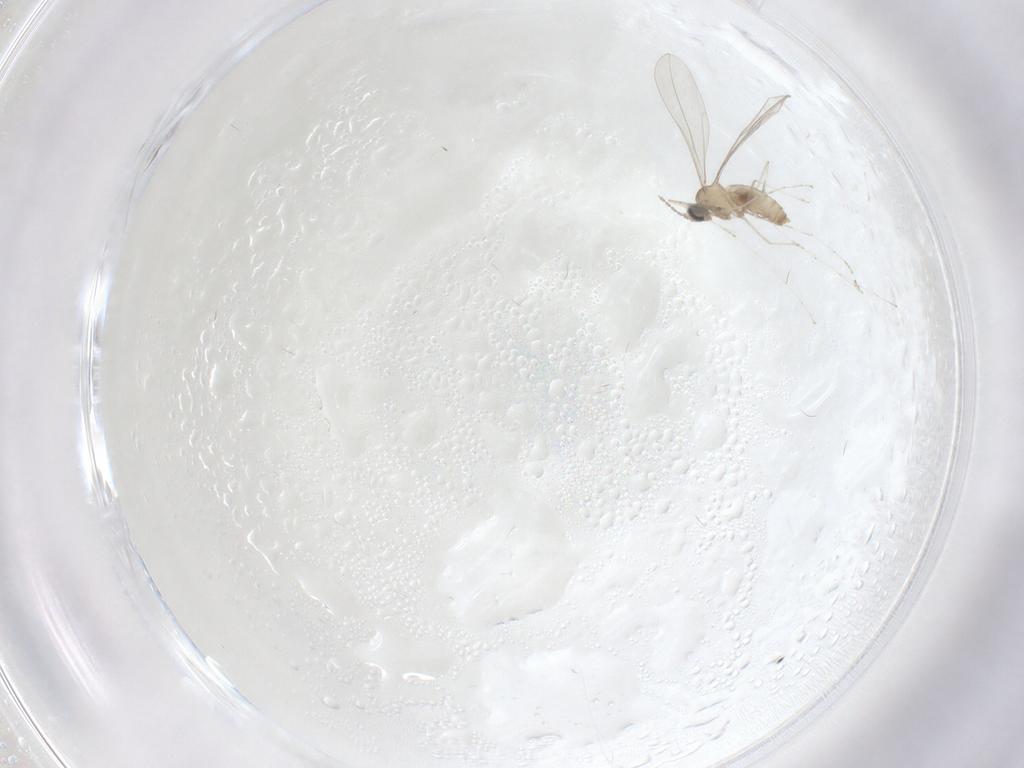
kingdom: Animalia
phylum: Arthropoda
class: Insecta
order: Diptera
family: Cecidomyiidae
